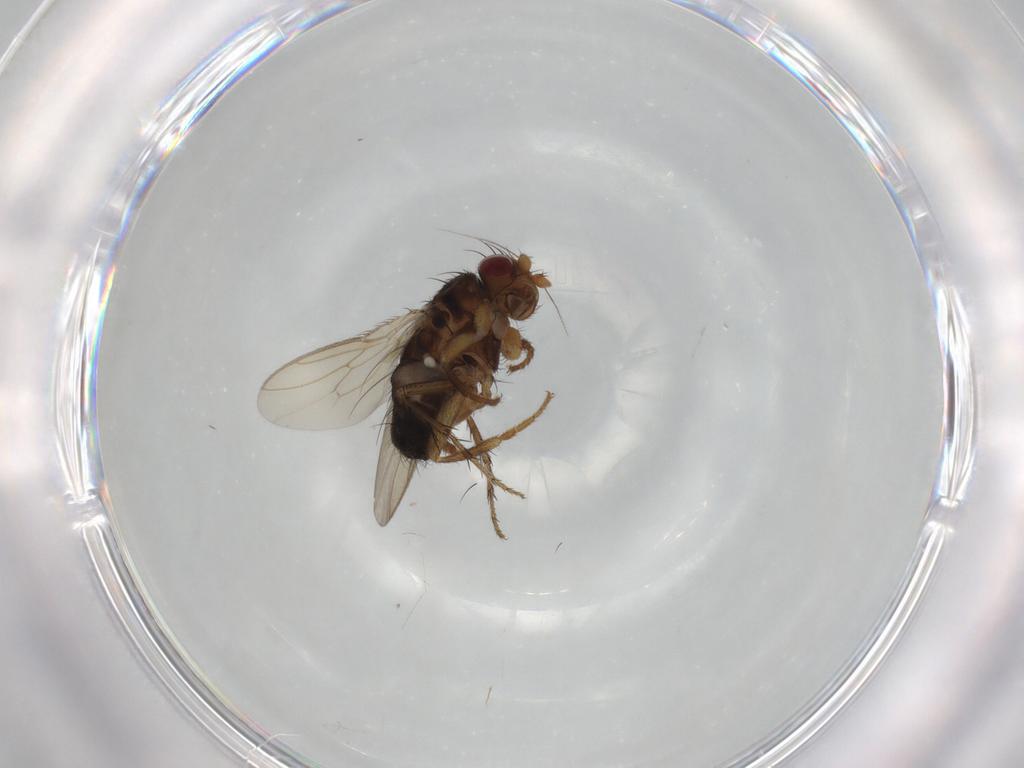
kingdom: Animalia
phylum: Arthropoda
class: Insecta
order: Diptera
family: Sphaeroceridae
